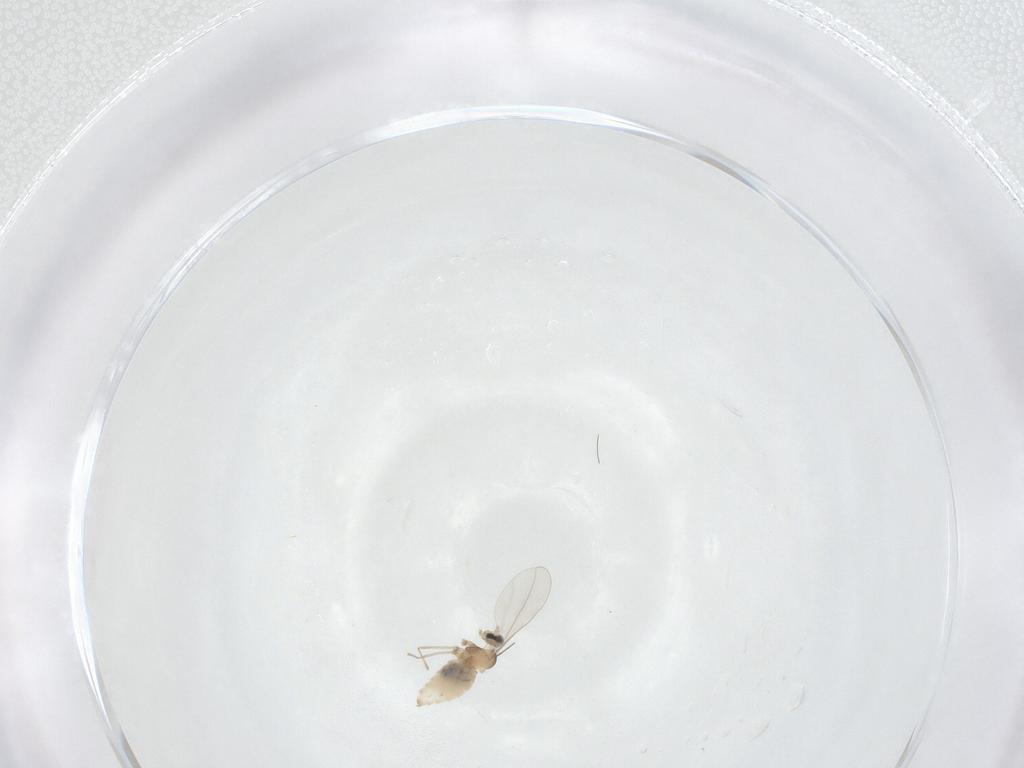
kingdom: Animalia
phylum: Arthropoda
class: Insecta
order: Diptera
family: Cecidomyiidae
